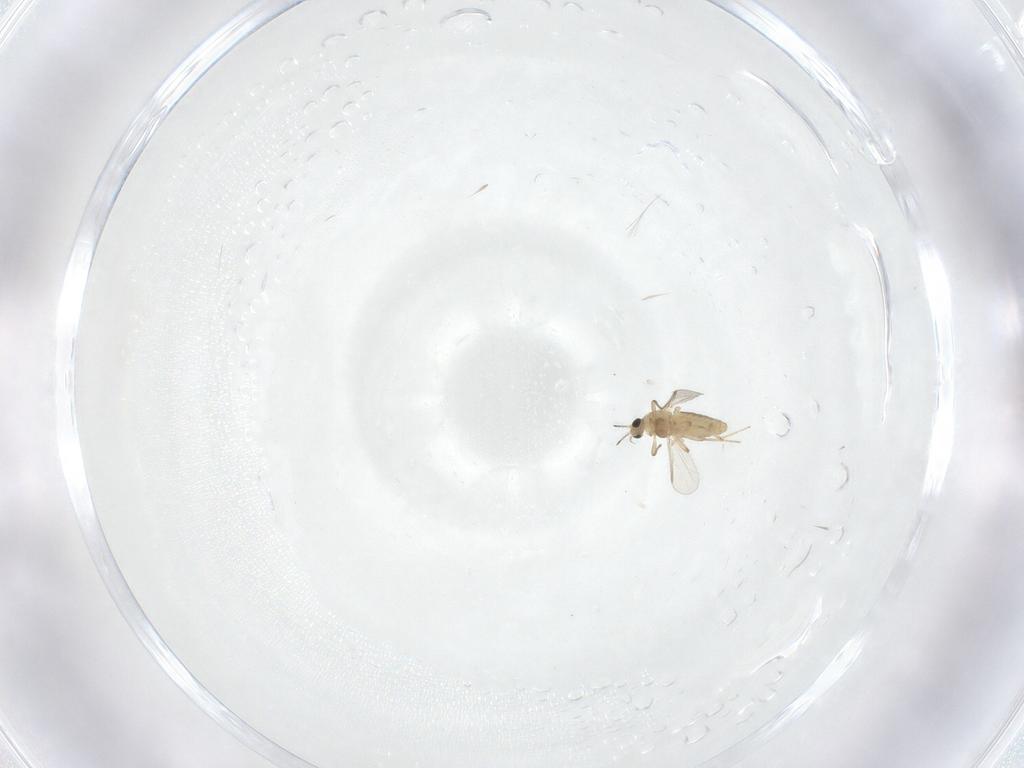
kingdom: Animalia
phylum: Arthropoda
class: Insecta
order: Diptera
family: Chironomidae
